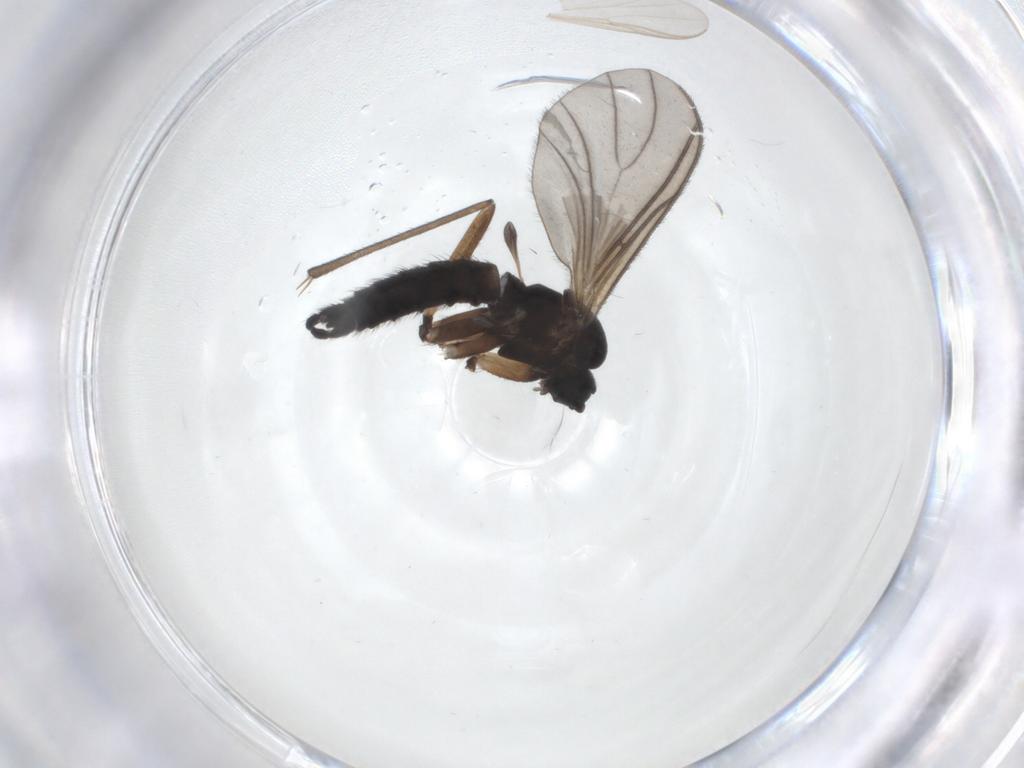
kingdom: Animalia
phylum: Arthropoda
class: Insecta
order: Diptera
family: Sciaridae
